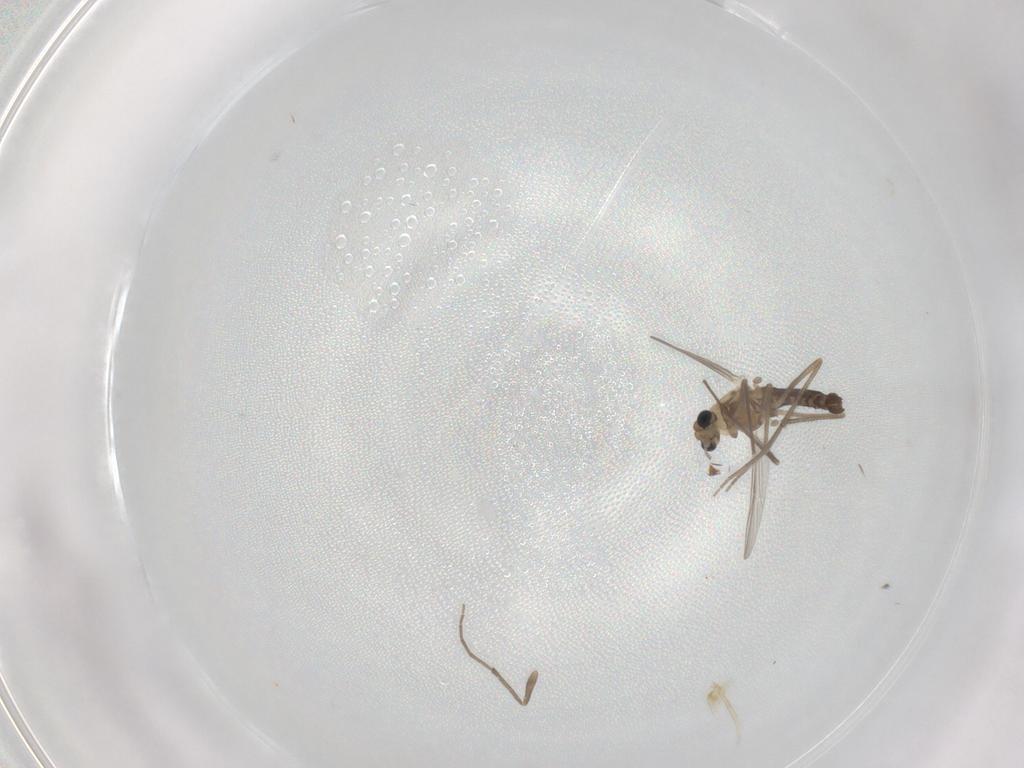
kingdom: Animalia
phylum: Arthropoda
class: Insecta
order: Diptera
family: Chironomidae
